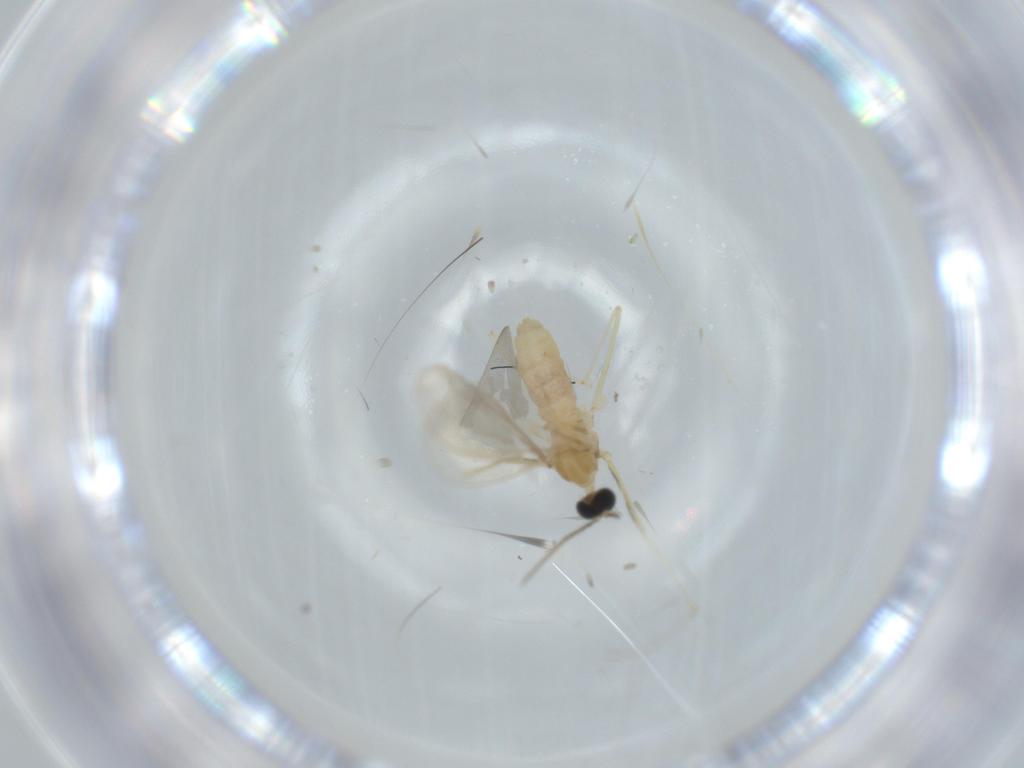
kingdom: Animalia
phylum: Arthropoda
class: Insecta
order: Diptera
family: Cecidomyiidae
